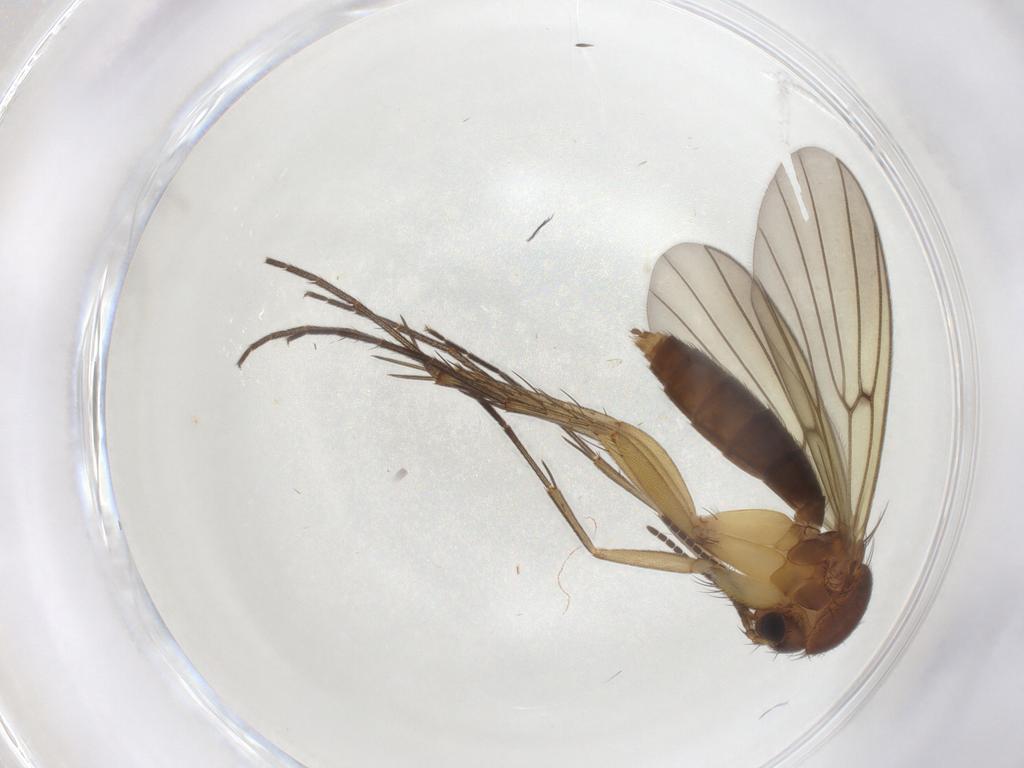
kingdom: Animalia
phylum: Arthropoda
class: Insecta
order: Diptera
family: Mycetophilidae
